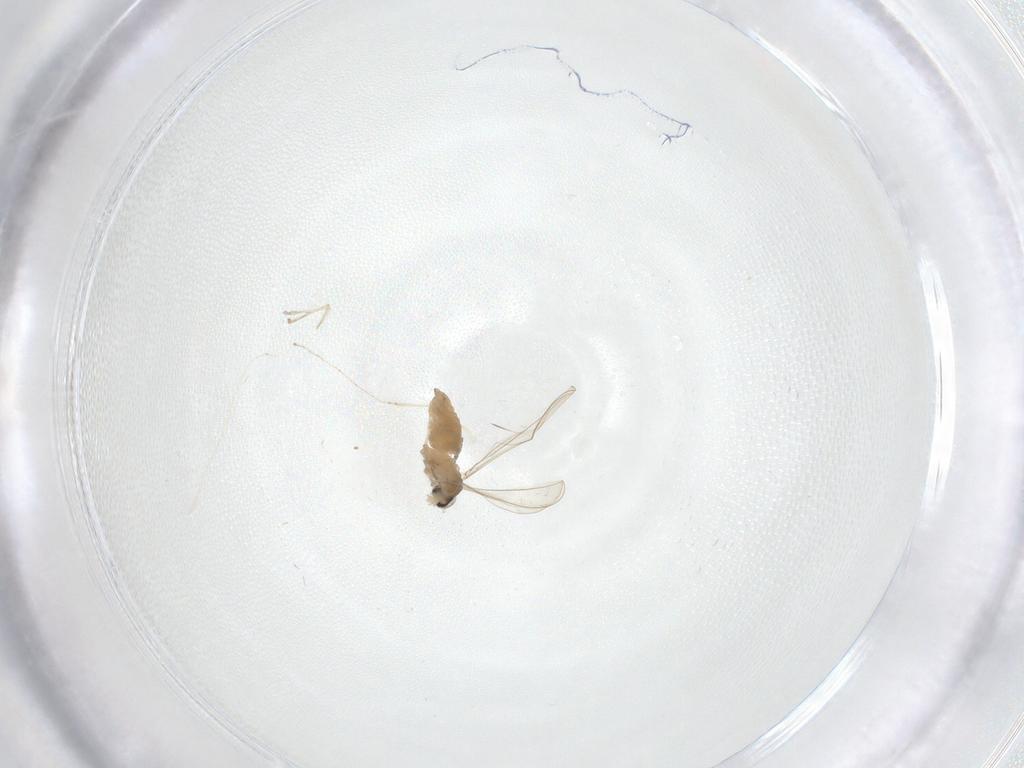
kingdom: Animalia
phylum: Arthropoda
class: Insecta
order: Diptera
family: Cecidomyiidae
